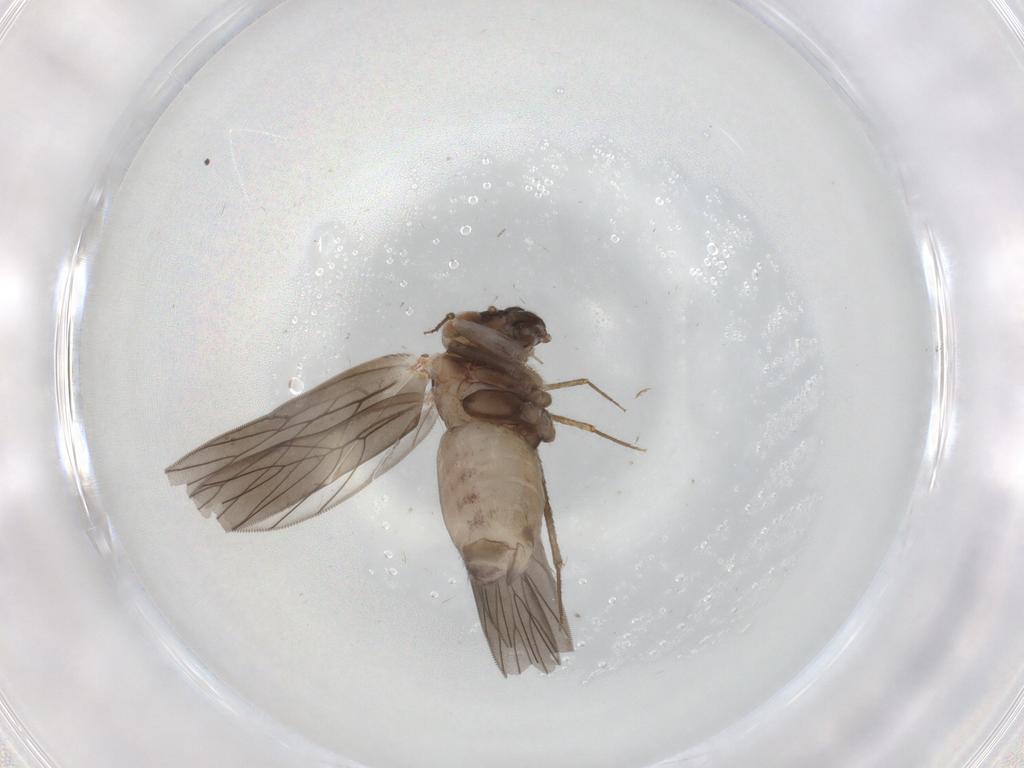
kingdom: Animalia
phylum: Arthropoda
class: Insecta
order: Psocodea
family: Lepidopsocidae
